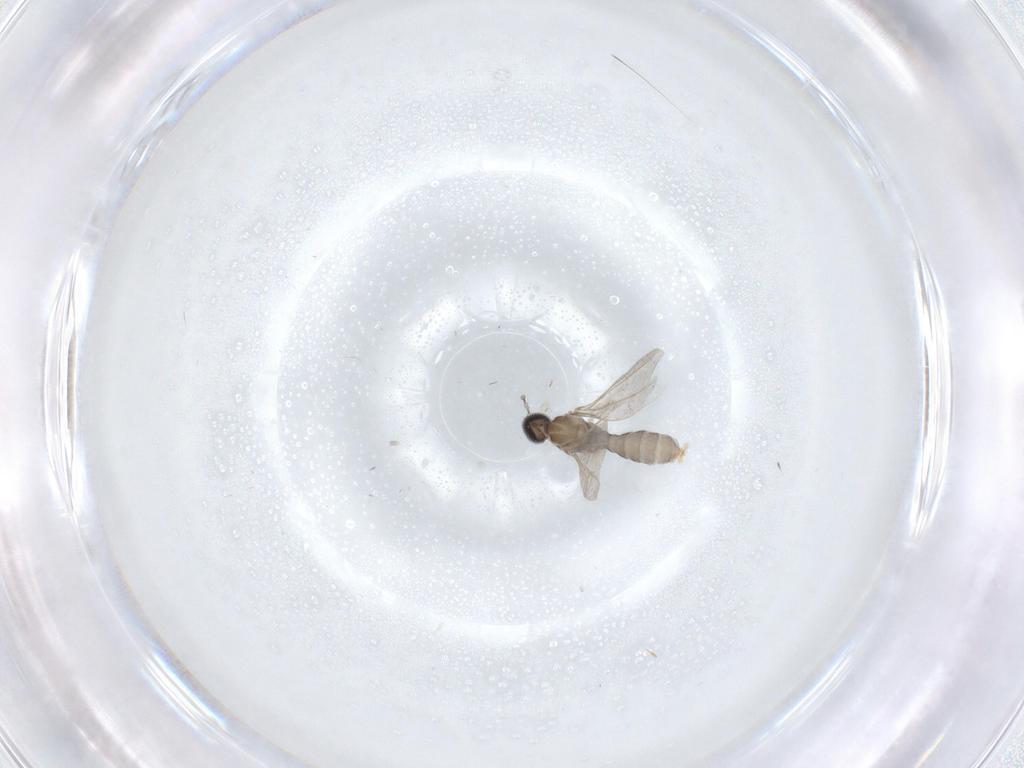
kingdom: Animalia
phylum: Arthropoda
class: Insecta
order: Diptera
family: Cecidomyiidae
